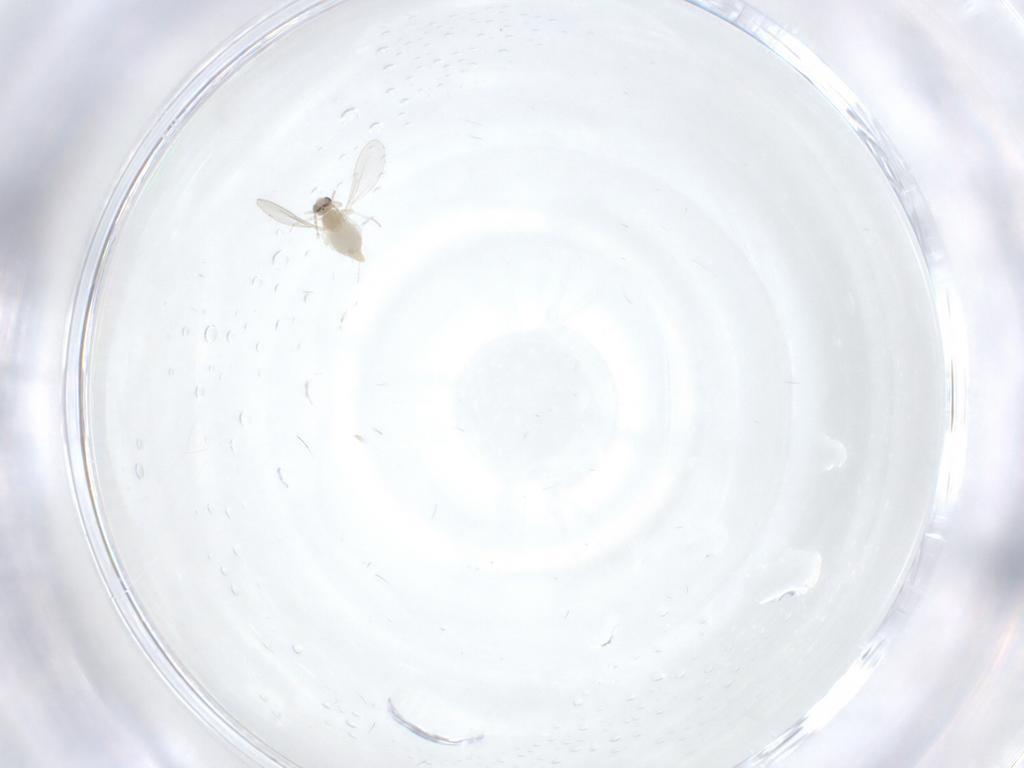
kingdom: Animalia
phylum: Arthropoda
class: Insecta
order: Diptera
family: Cecidomyiidae
